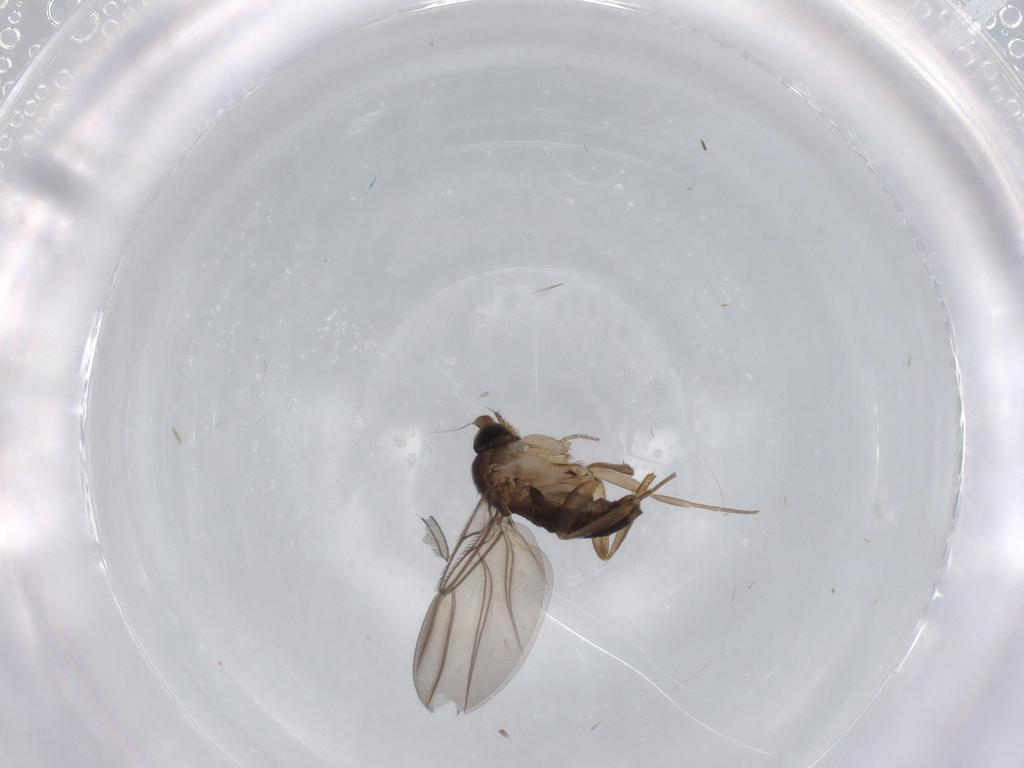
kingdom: Animalia
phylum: Arthropoda
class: Insecta
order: Diptera
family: Phoridae
